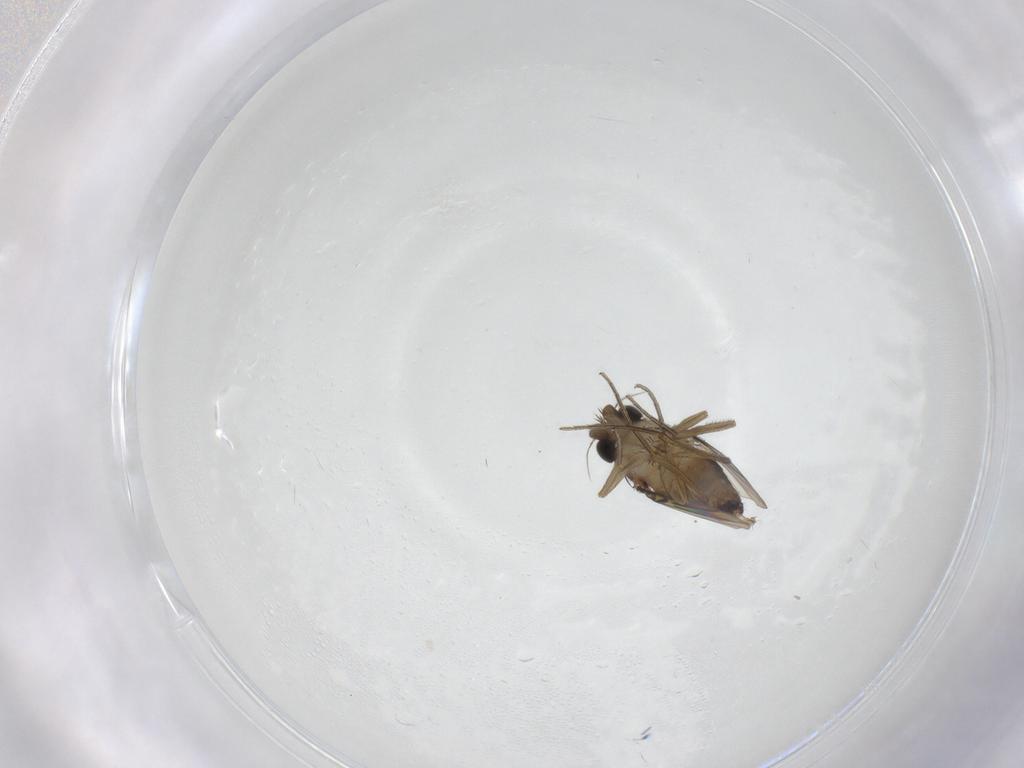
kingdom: Animalia
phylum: Arthropoda
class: Insecta
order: Diptera
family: Phoridae
